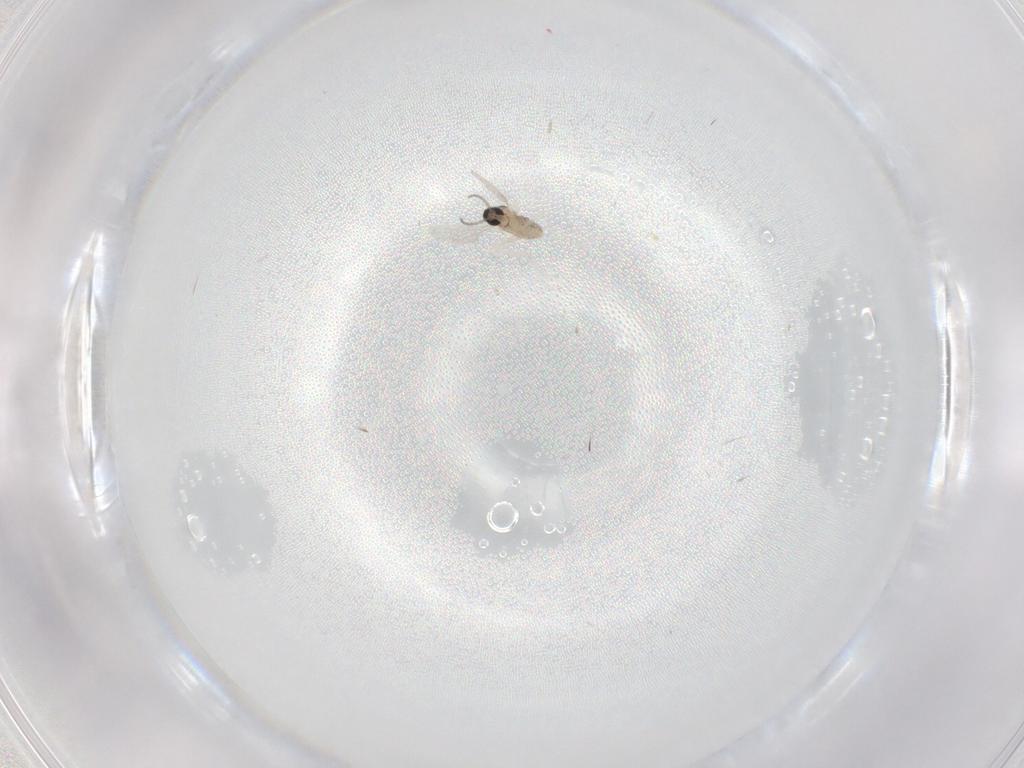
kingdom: Animalia
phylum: Arthropoda
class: Insecta
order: Diptera
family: Cecidomyiidae
